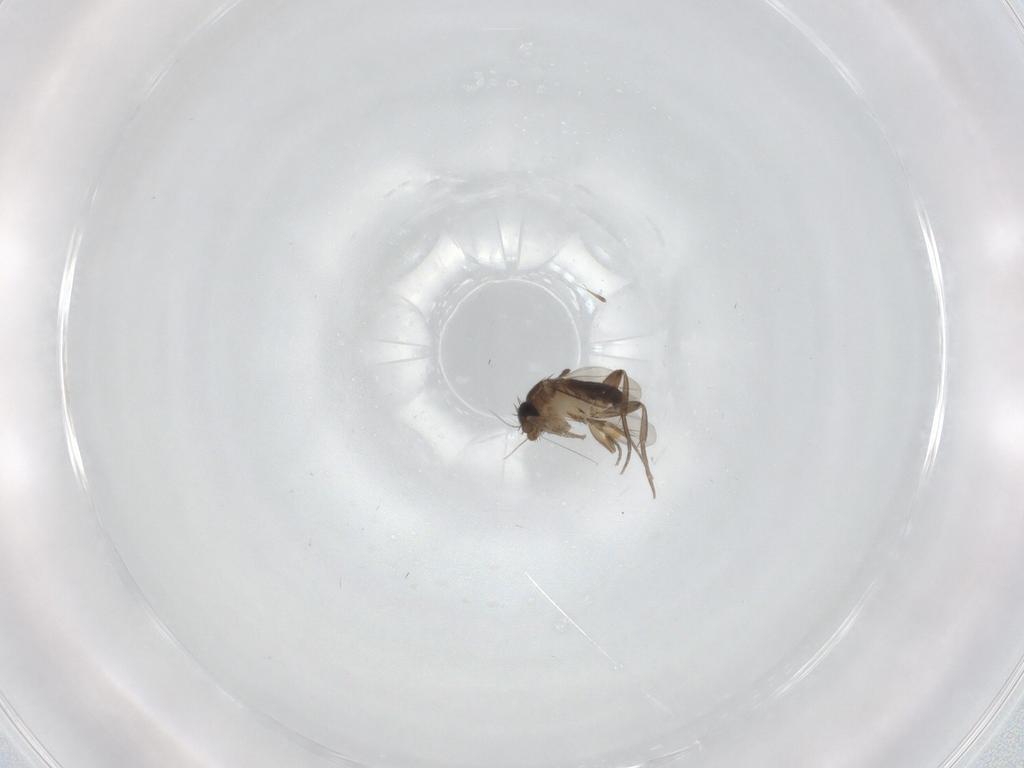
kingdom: Animalia
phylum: Arthropoda
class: Insecta
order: Diptera
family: Phoridae
